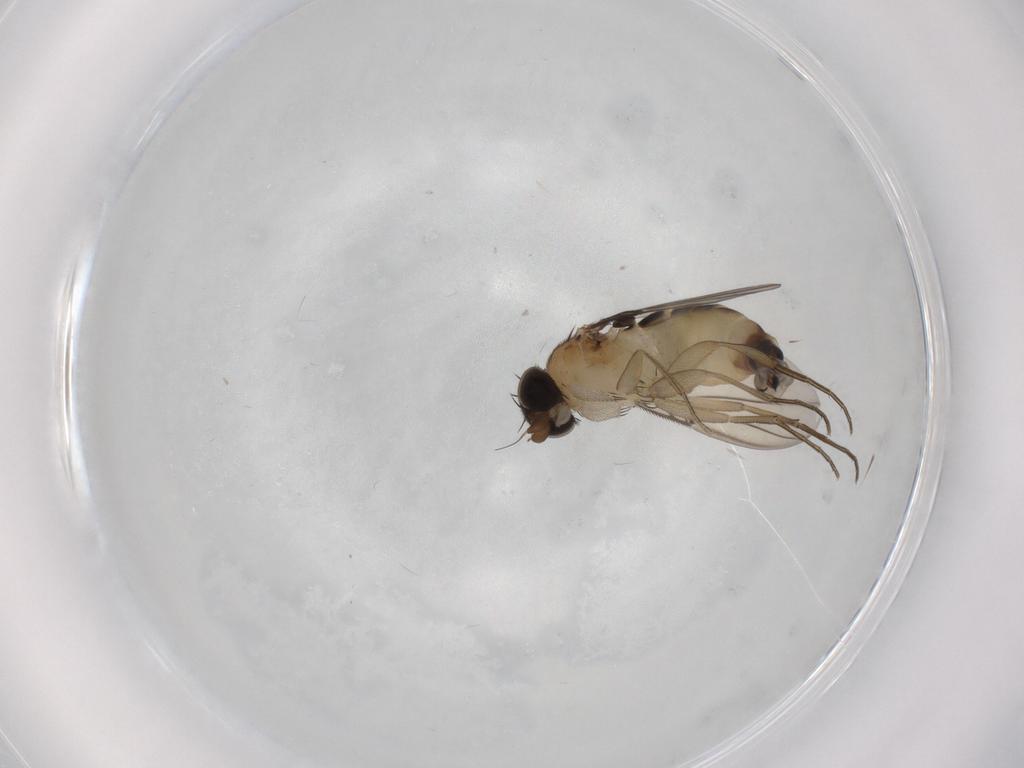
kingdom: Animalia
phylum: Arthropoda
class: Insecta
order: Diptera
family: Phoridae
